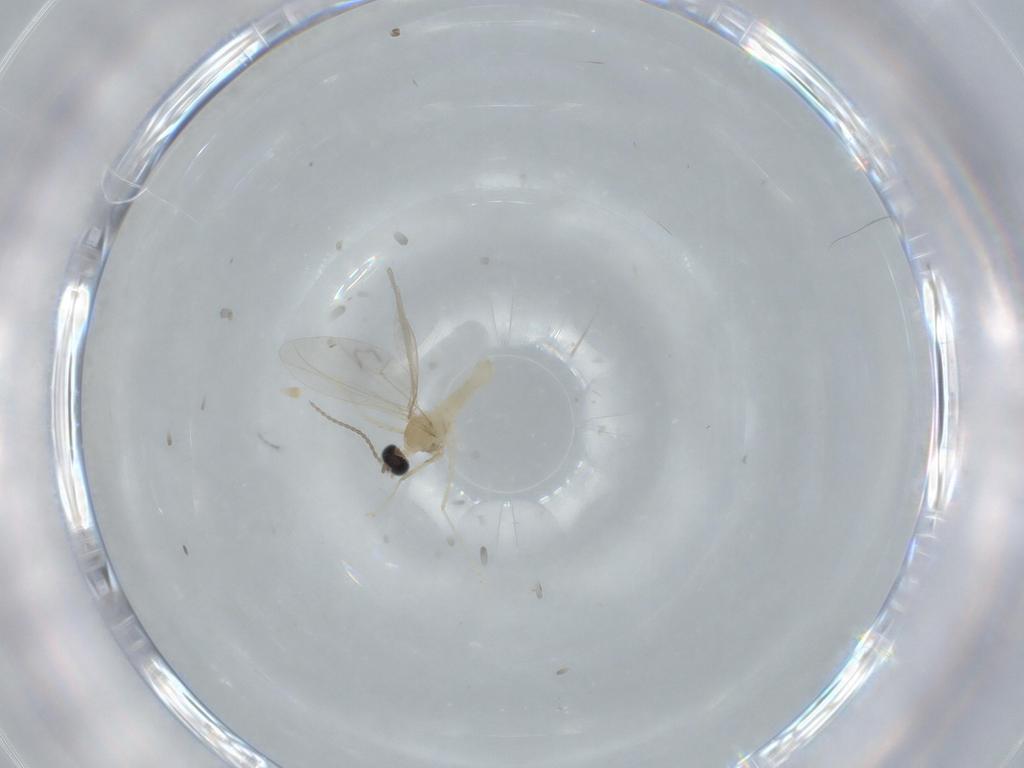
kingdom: Animalia
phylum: Arthropoda
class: Insecta
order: Diptera
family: Cecidomyiidae
